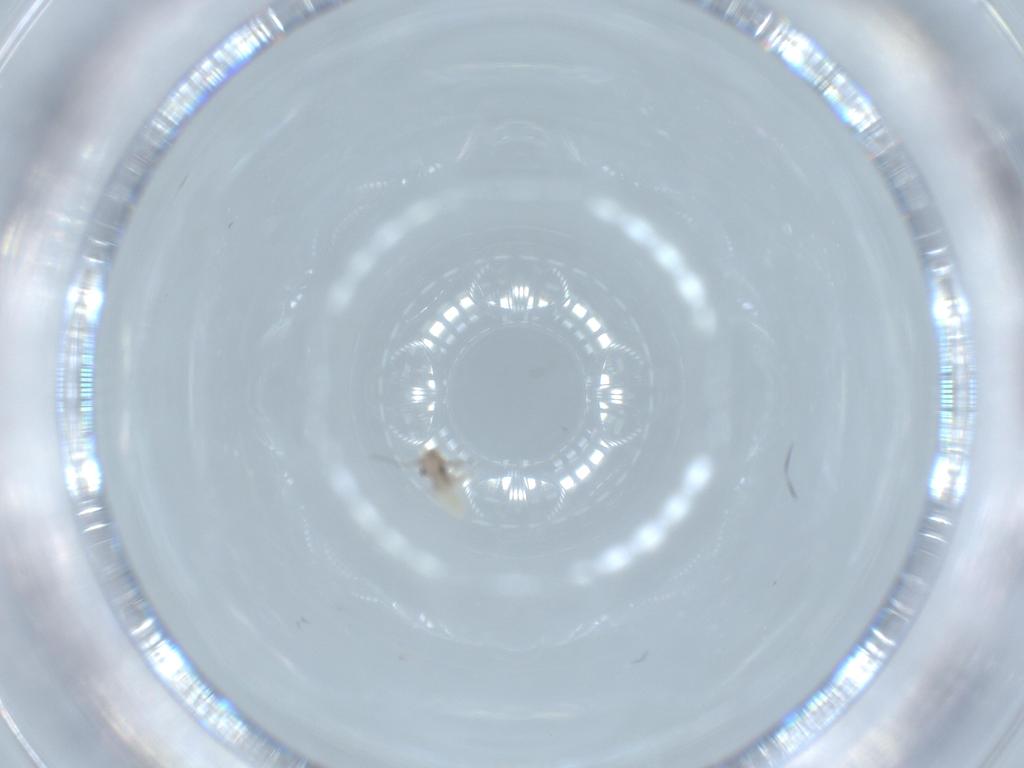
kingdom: Animalia
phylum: Arthropoda
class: Insecta
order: Psocodea
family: Lepidopsocidae
